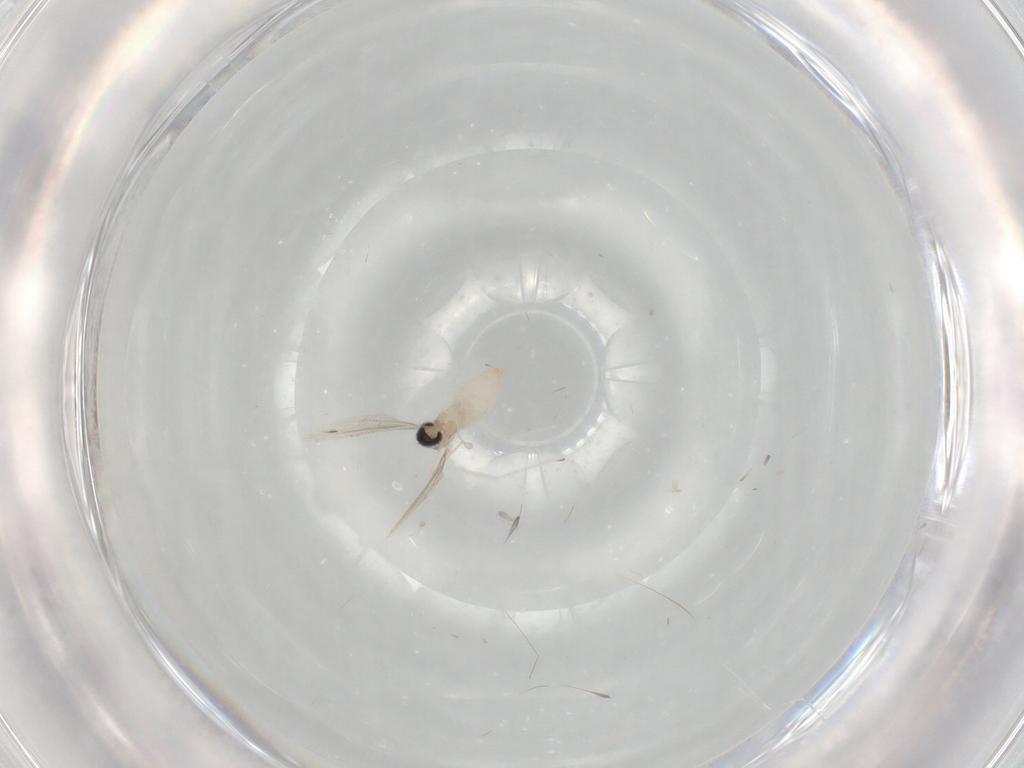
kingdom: Animalia
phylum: Arthropoda
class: Insecta
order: Diptera
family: Cecidomyiidae
